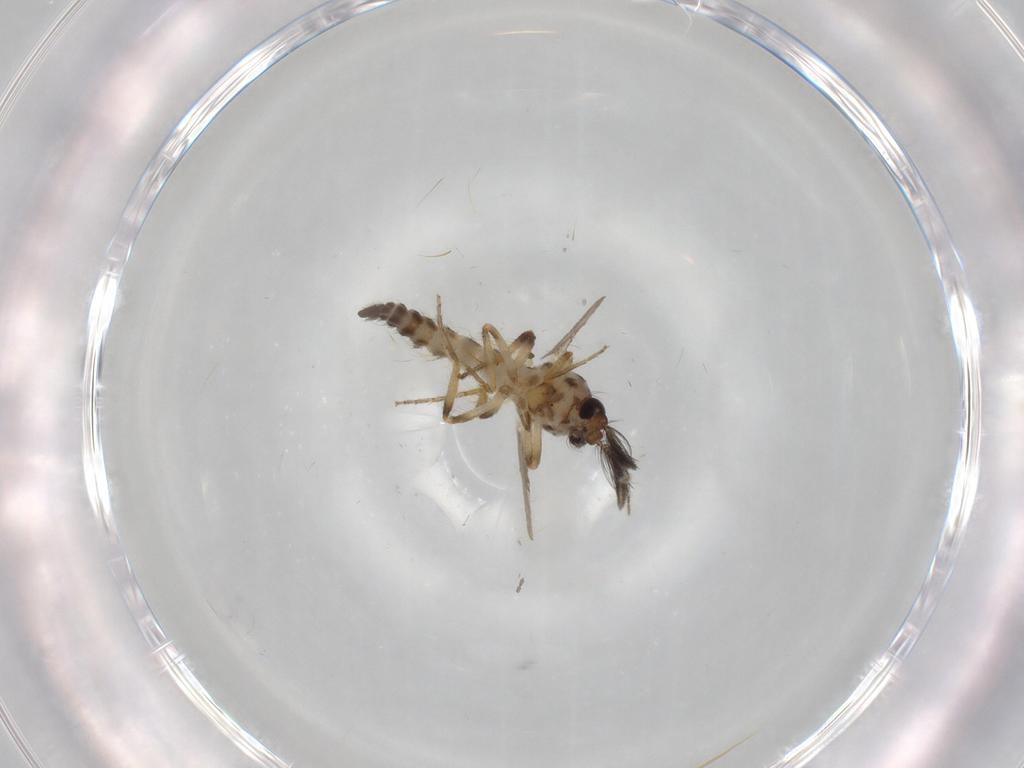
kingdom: Animalia
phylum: Arthropoda
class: Insecta
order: Diptera
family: Ceratopogonidae
